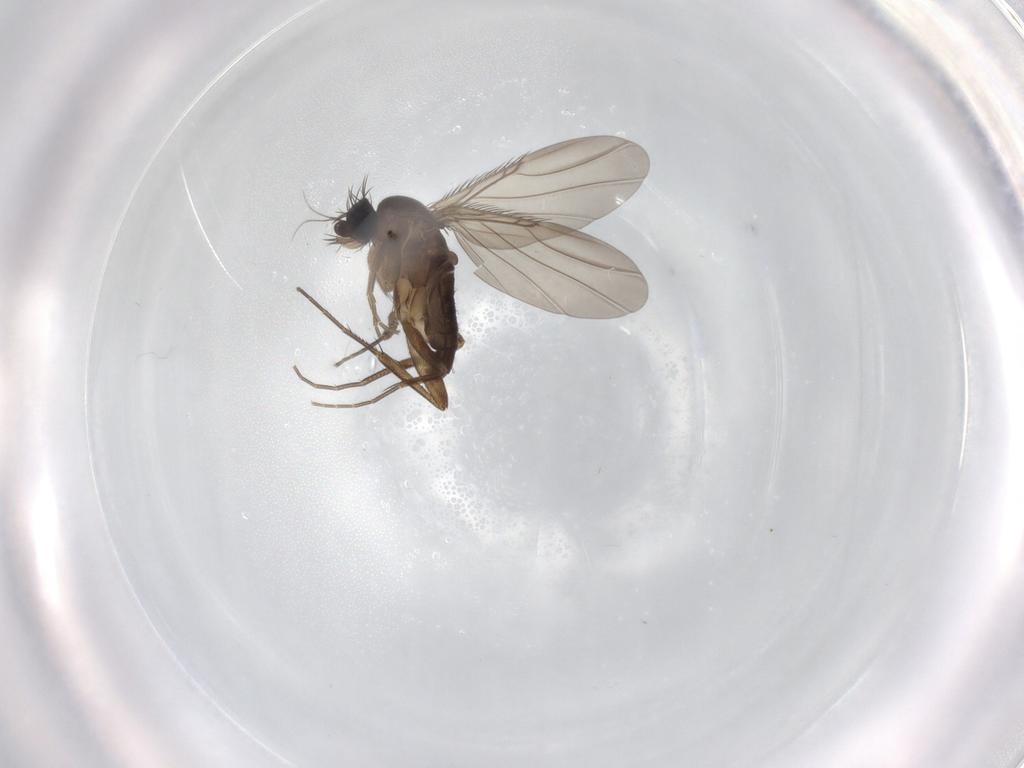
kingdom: Animalia
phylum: Arthropoda
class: Insecta
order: Diptera
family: Phoridae
